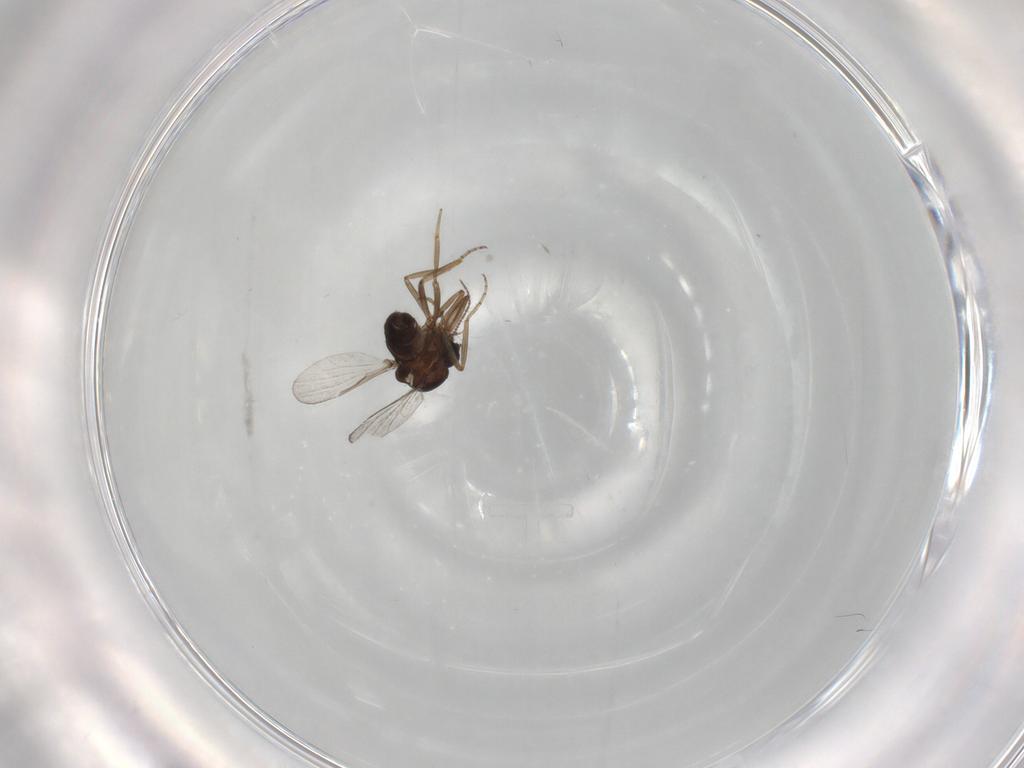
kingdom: Animalia
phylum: Arthropoda
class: Insecta
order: Diptera
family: Ceratopogonidae
